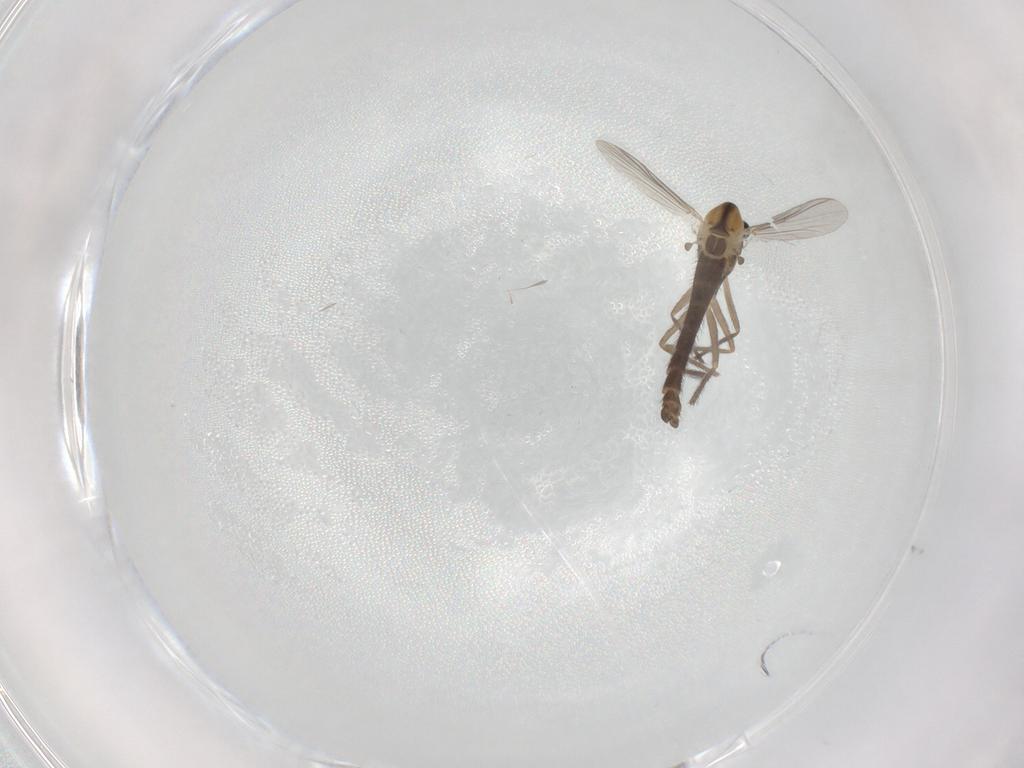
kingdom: Animalia
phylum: Arthropoda
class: Insecta
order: Diptera
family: Chironomidae
